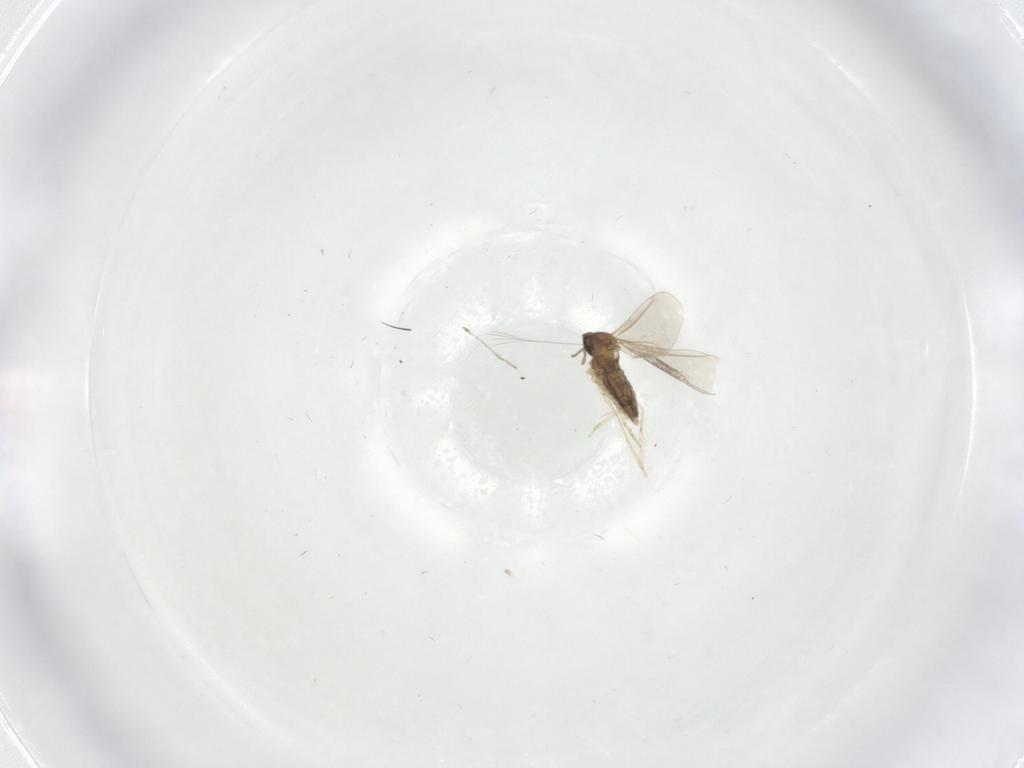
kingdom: Animalia
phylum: Arthropoda
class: Insecta
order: Diptera
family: Cecidomyiidae
